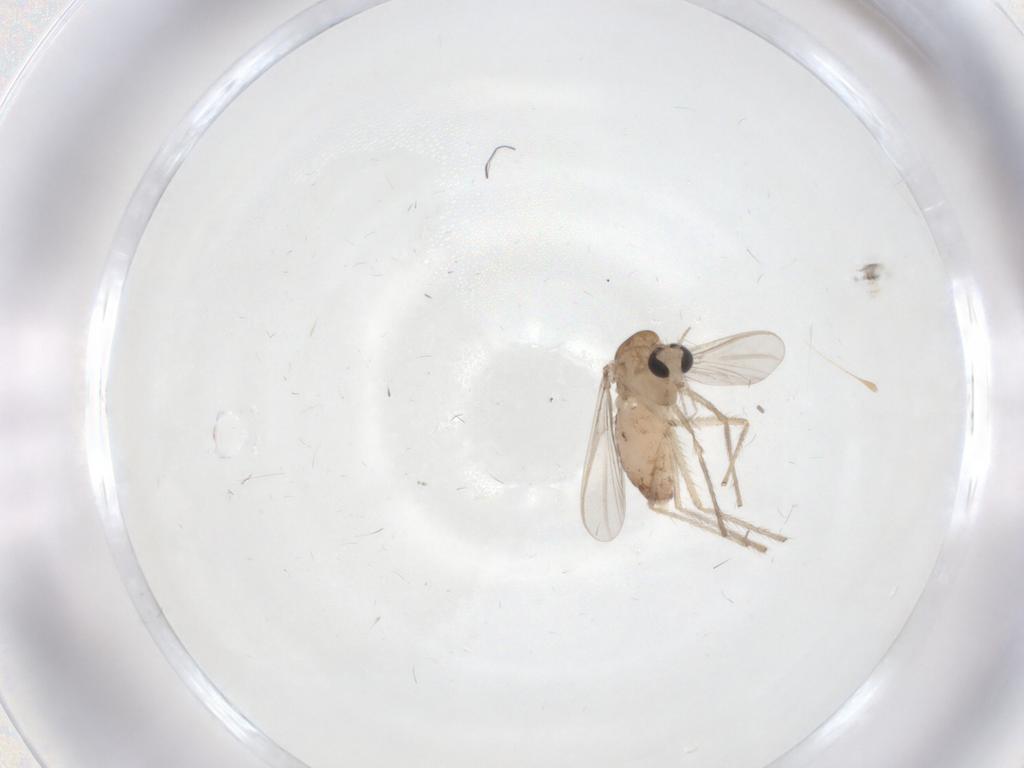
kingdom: Animalia
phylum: Arthropoda
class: Insecta
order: Diptera
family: Chironomidae
